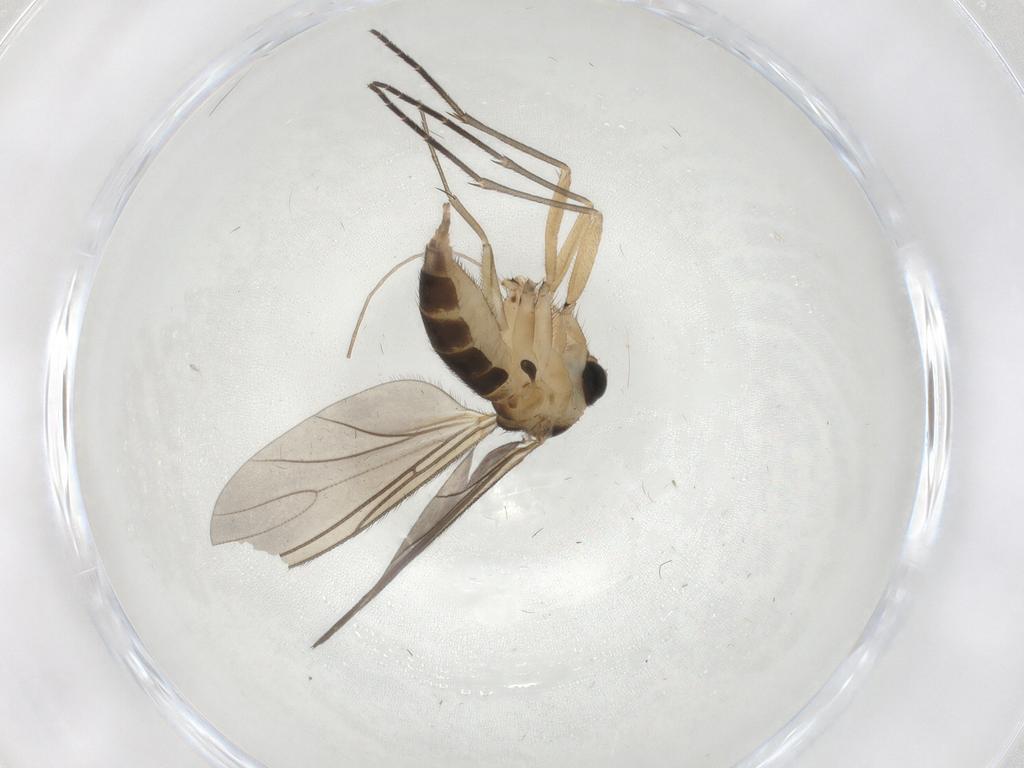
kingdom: Animalia
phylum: Arthropoda
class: Insecta
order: Diptera
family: Sciaridae
